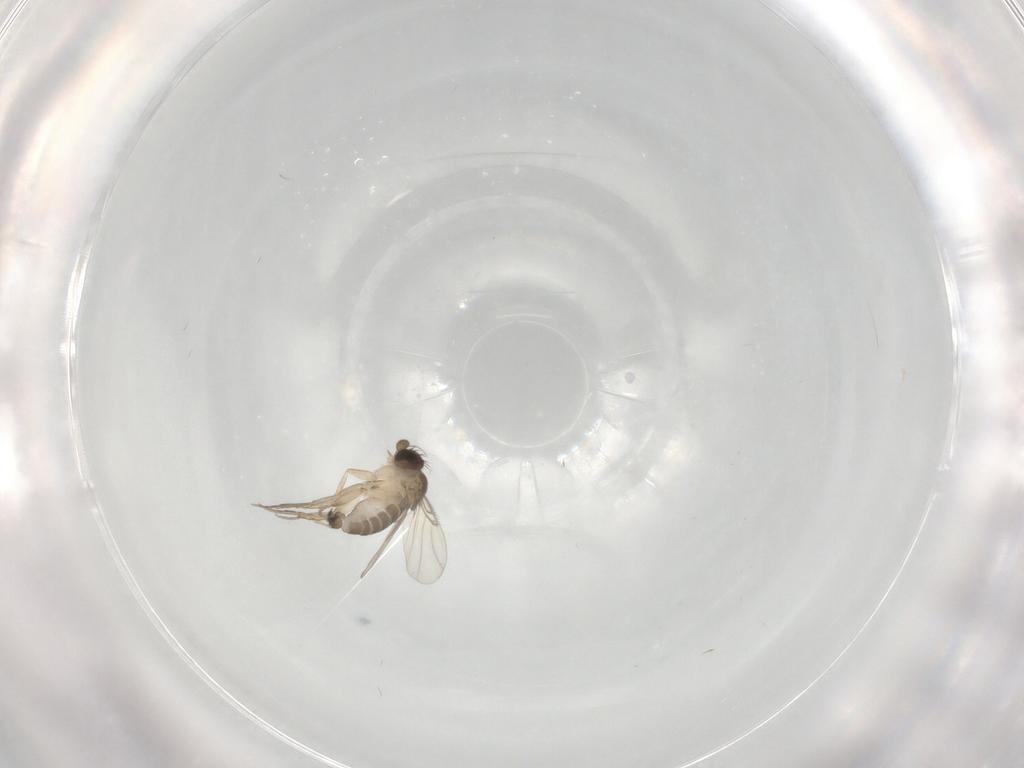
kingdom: Animalia
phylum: Arthropoda
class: Insecta
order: Diptera
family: Phoridae
